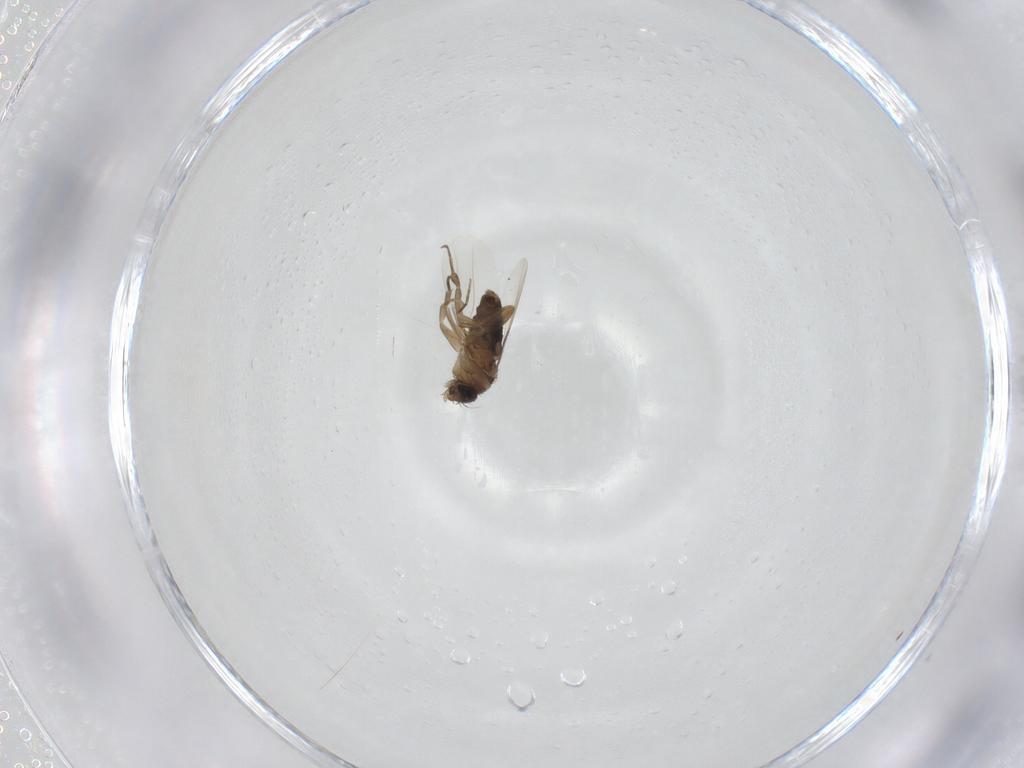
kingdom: Animalia
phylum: Arthropoda
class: Insecta
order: Diptera
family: Phoridae
